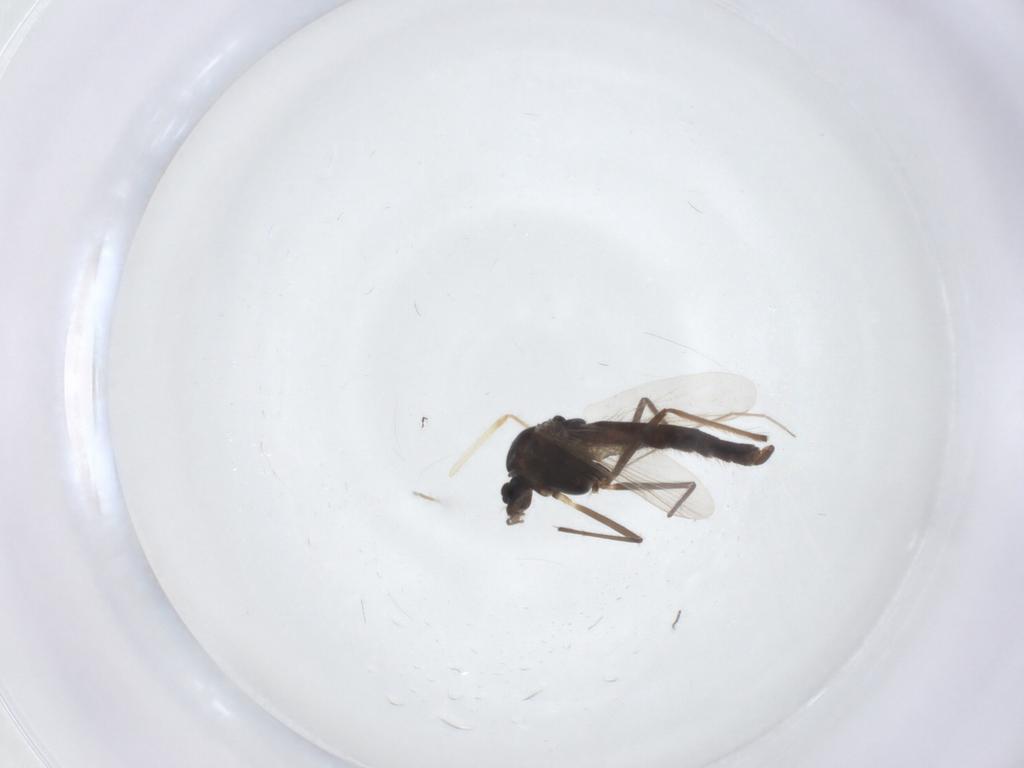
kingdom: Animalia
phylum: Arthropoda
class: Insecta
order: Diptera
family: Chironomidae
